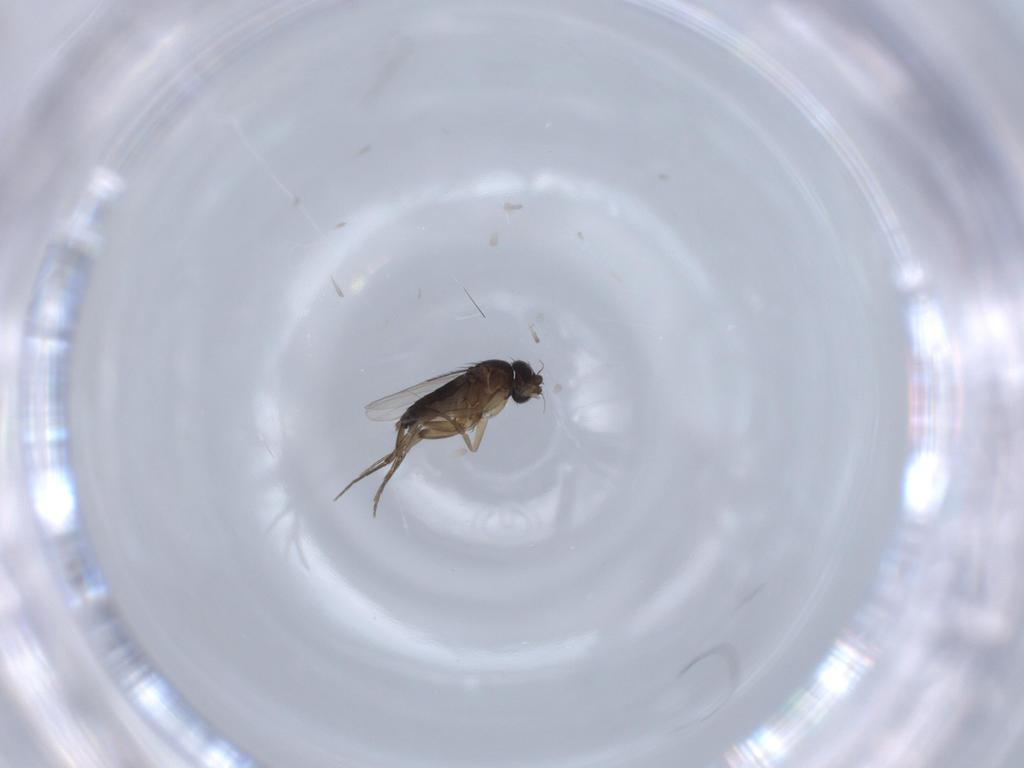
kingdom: Animalia
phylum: Arthropoda
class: Insecta
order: Diptera
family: Phoridae
